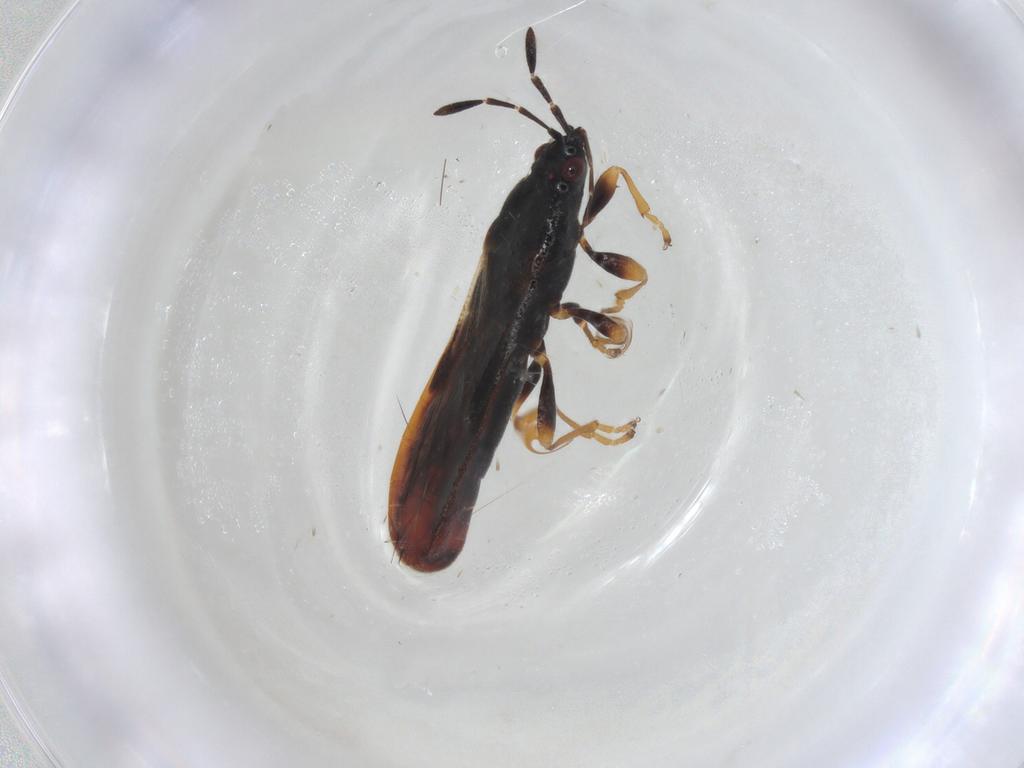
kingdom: Animalia
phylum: Arthropoda
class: Insecta
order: Hemiptera
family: Blissidae
